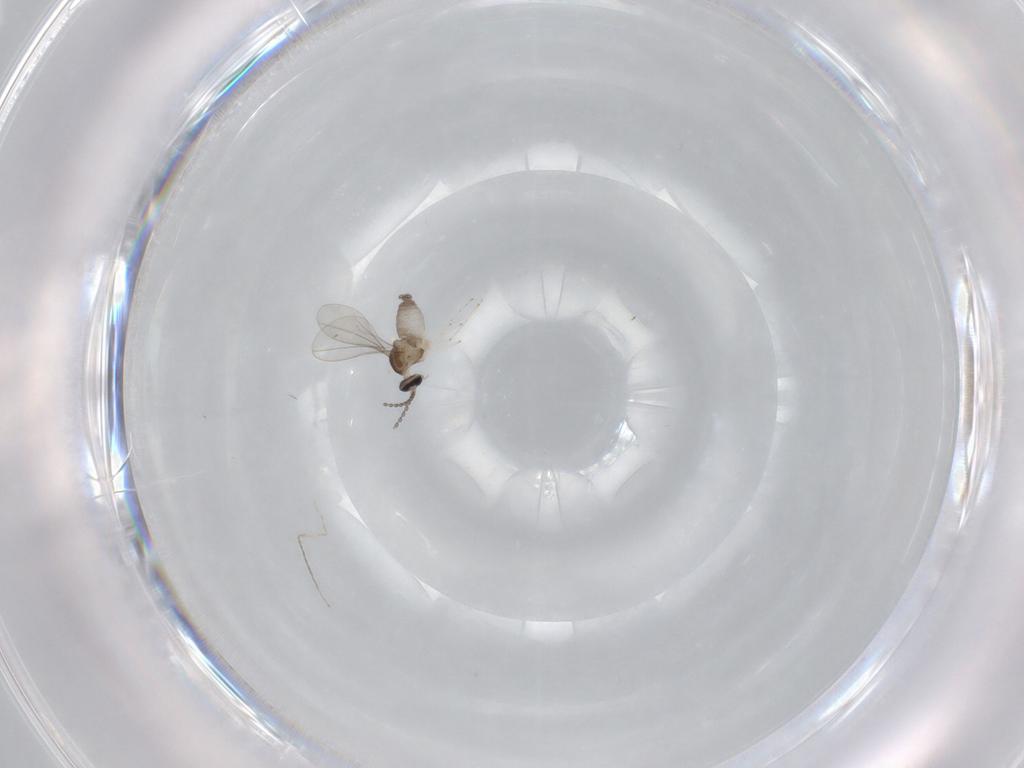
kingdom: Animalia
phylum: Arthropoda
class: Insecta
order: Diptera
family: Cecidomyiidae
